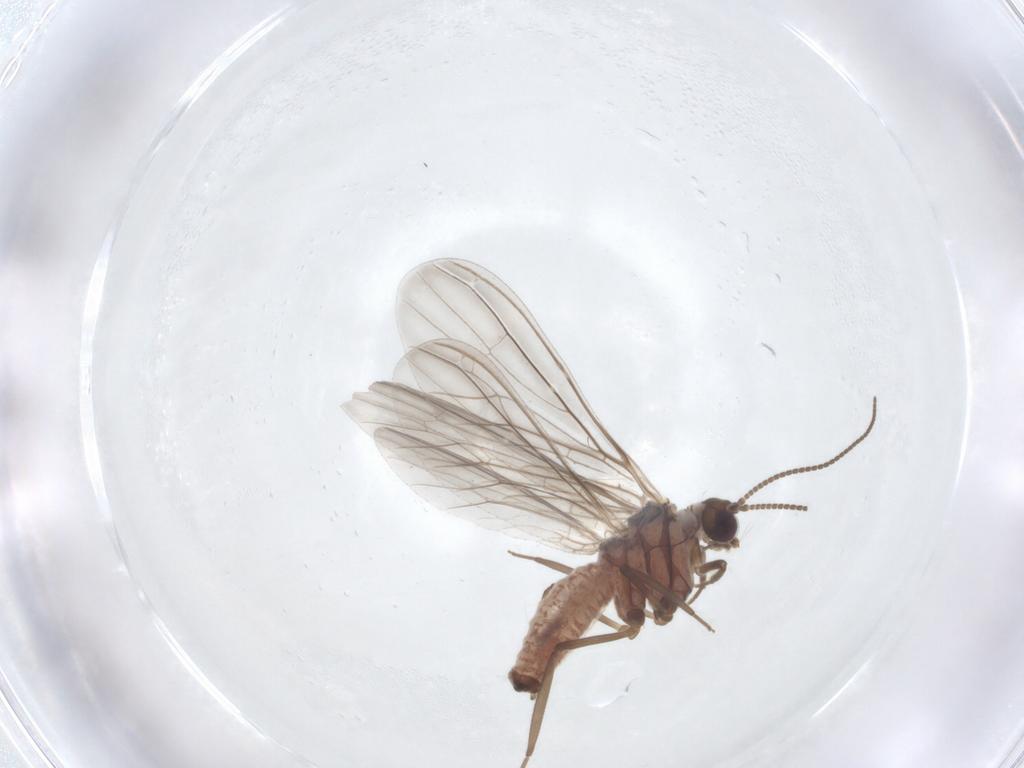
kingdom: Animalia
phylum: Arthropoda
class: Insecta
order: Neuroptera
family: Coniopterygidae
